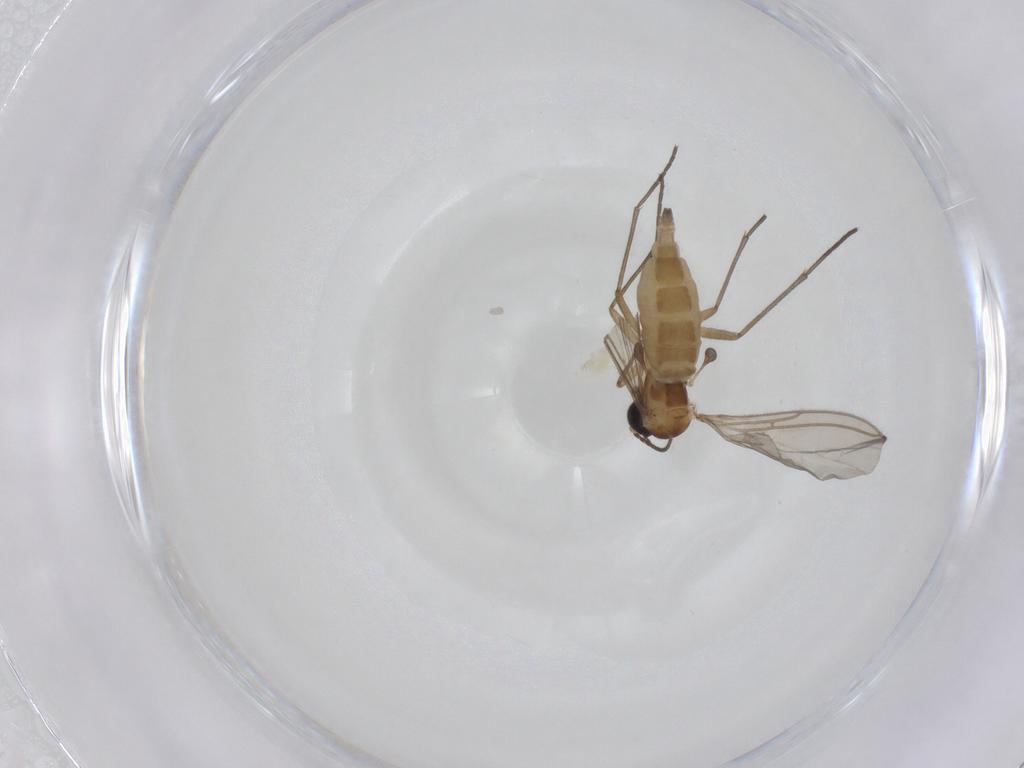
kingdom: Animalia
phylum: Arthropoda
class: Insecta
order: Diptera
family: Sciaridae
